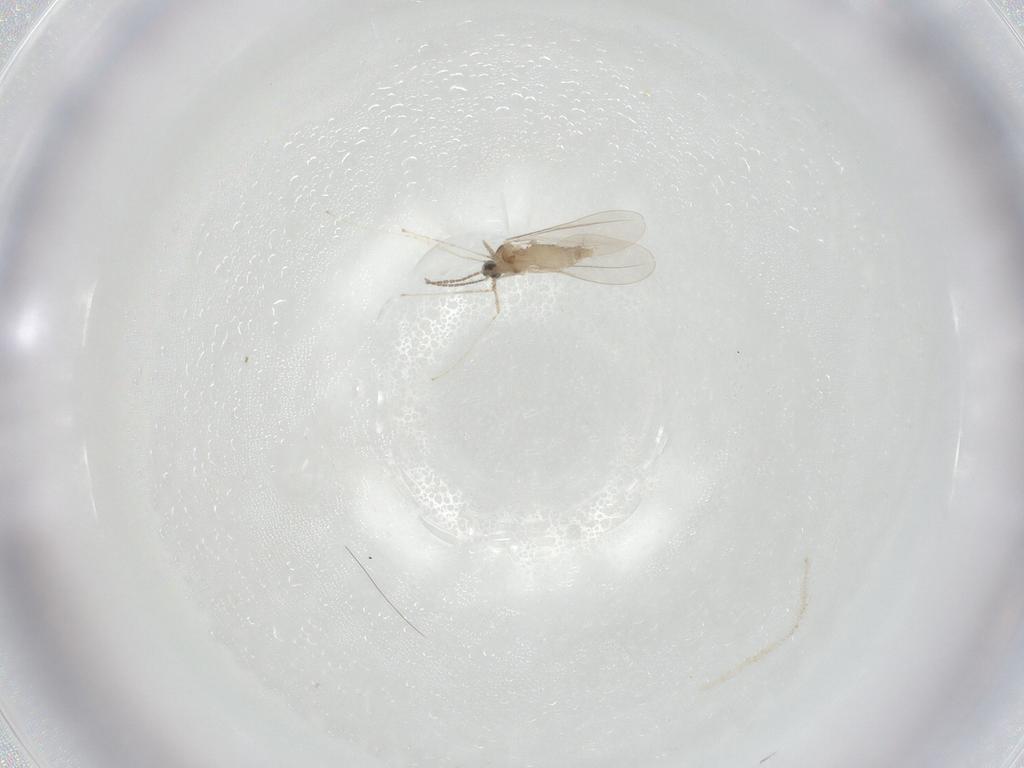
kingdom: Animalia
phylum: Arthropoda
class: Insecta
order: Diptera
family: Cecidomyiidae
